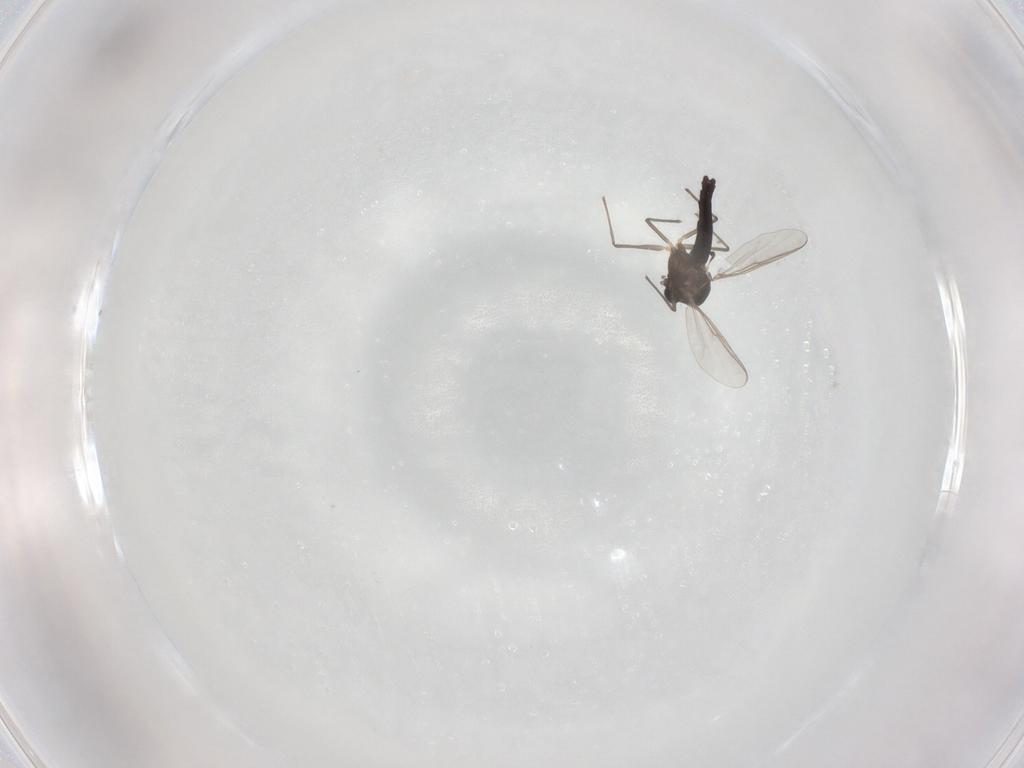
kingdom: Animalia
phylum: Arthropoda
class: Insecta
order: Diptera
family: Chironomidae
